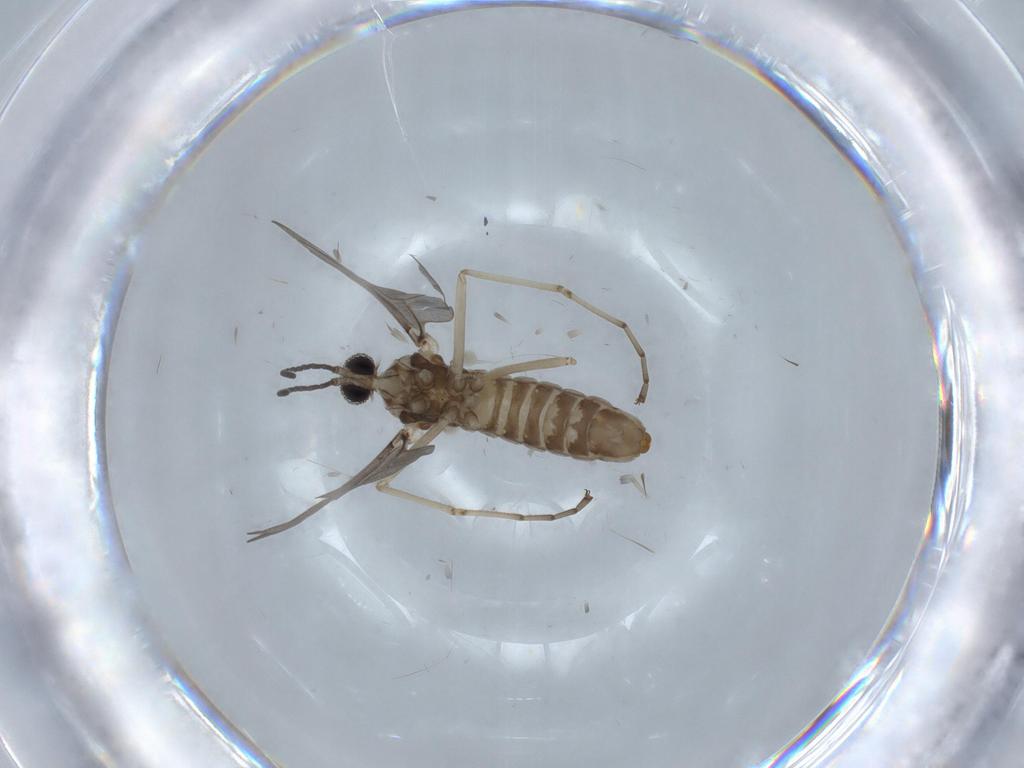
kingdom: Animalia
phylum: Arthropoda
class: Insecta
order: Diptera
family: Cecidomyiidae
